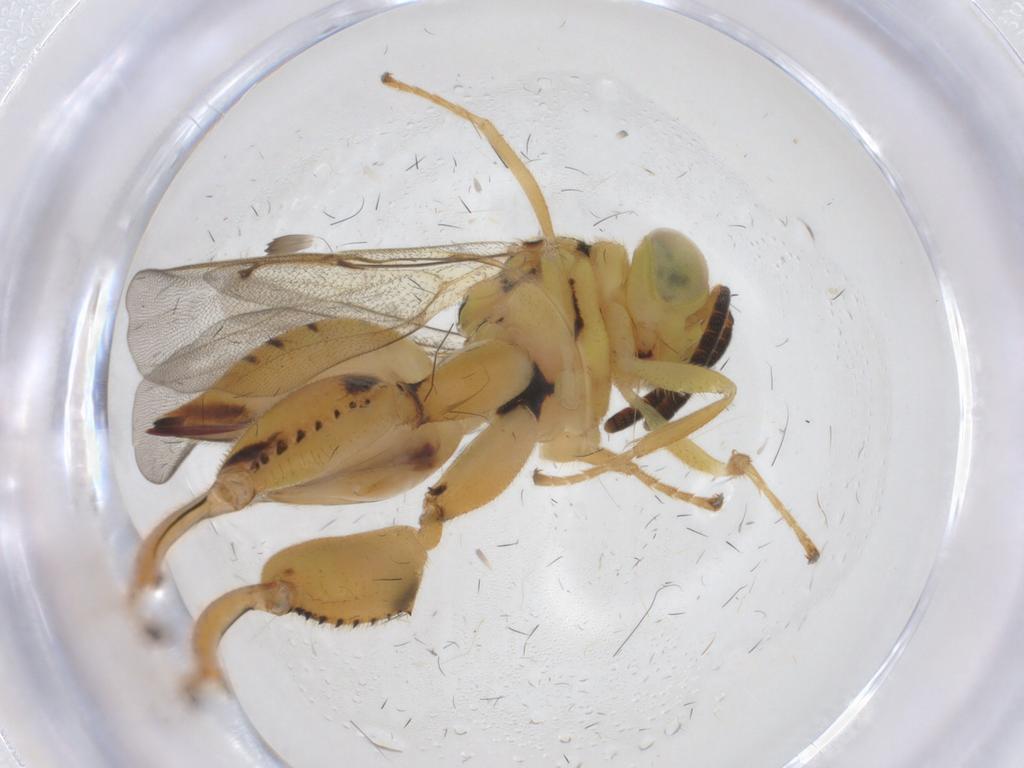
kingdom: Animalia
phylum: Arthropoda
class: Insecta
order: Hymenoptera
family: Chalcididae
